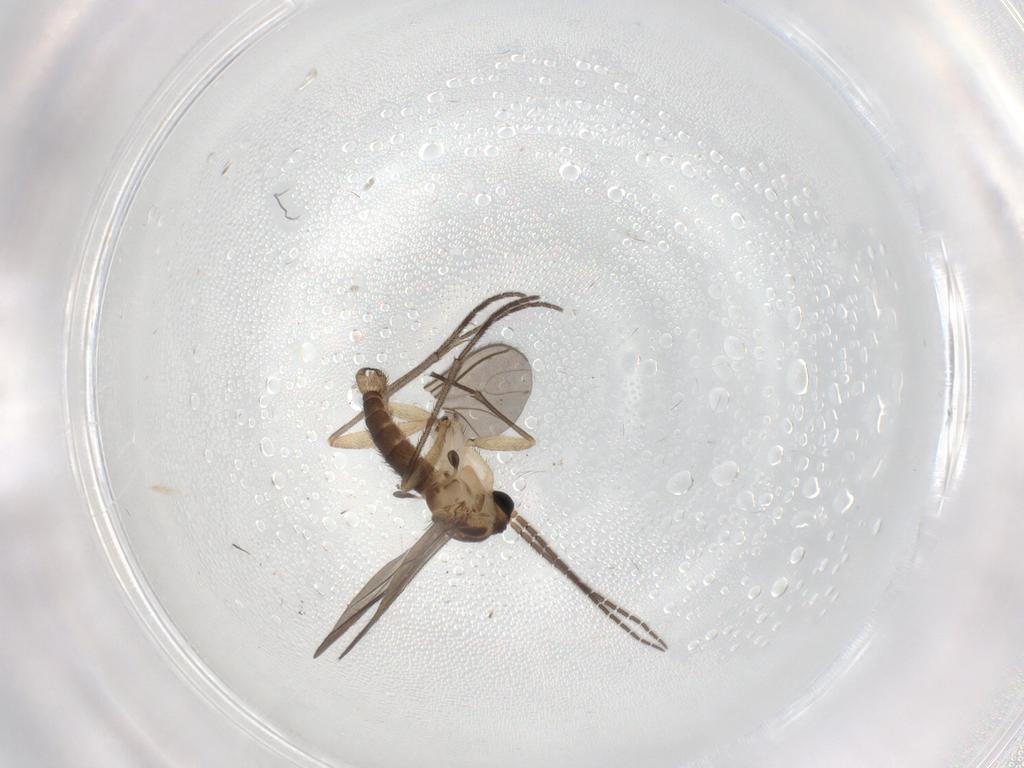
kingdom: Animalia
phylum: Arthropoda
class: Insecta
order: Diptera
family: Sciaridae
